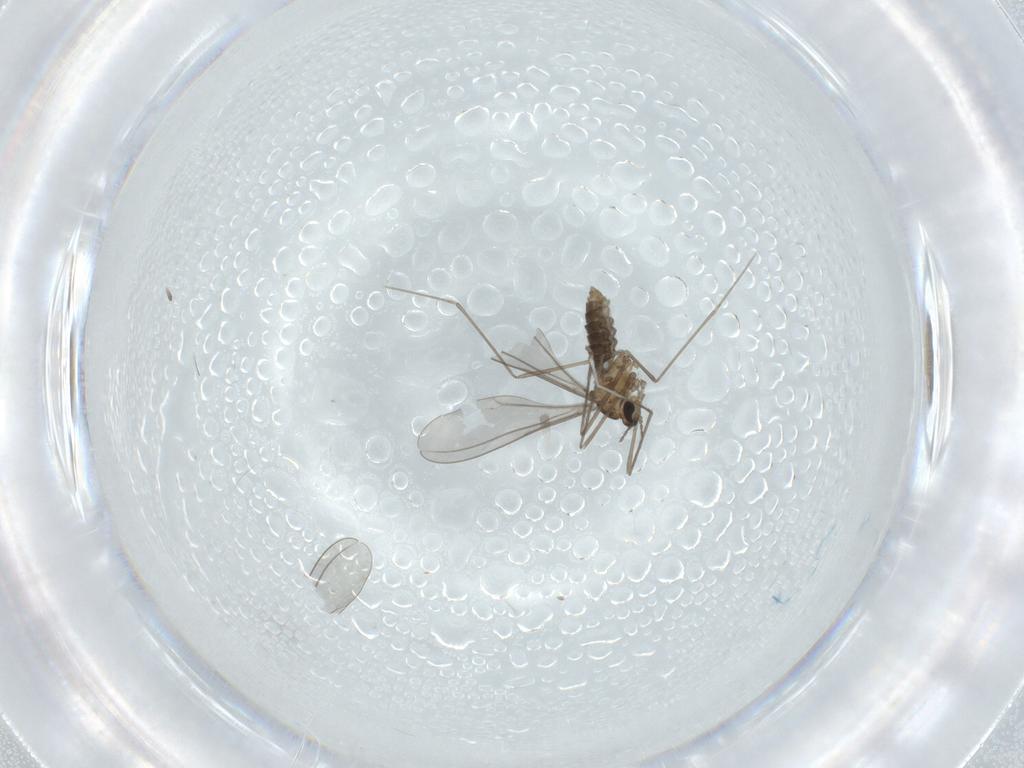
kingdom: Animalia
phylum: Arthropoda
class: Insecta
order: Diptera
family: Cecidomyiidae
